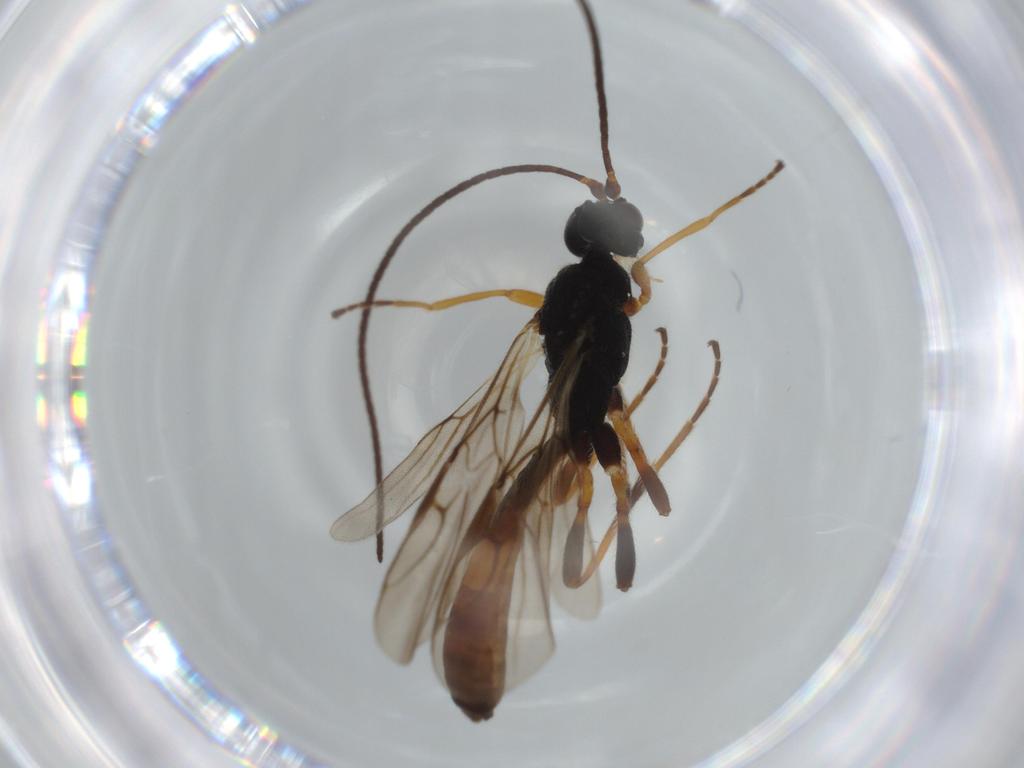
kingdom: Animalia
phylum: Arthropoda
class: Insecta
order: Hymenoptera
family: Braconidae
